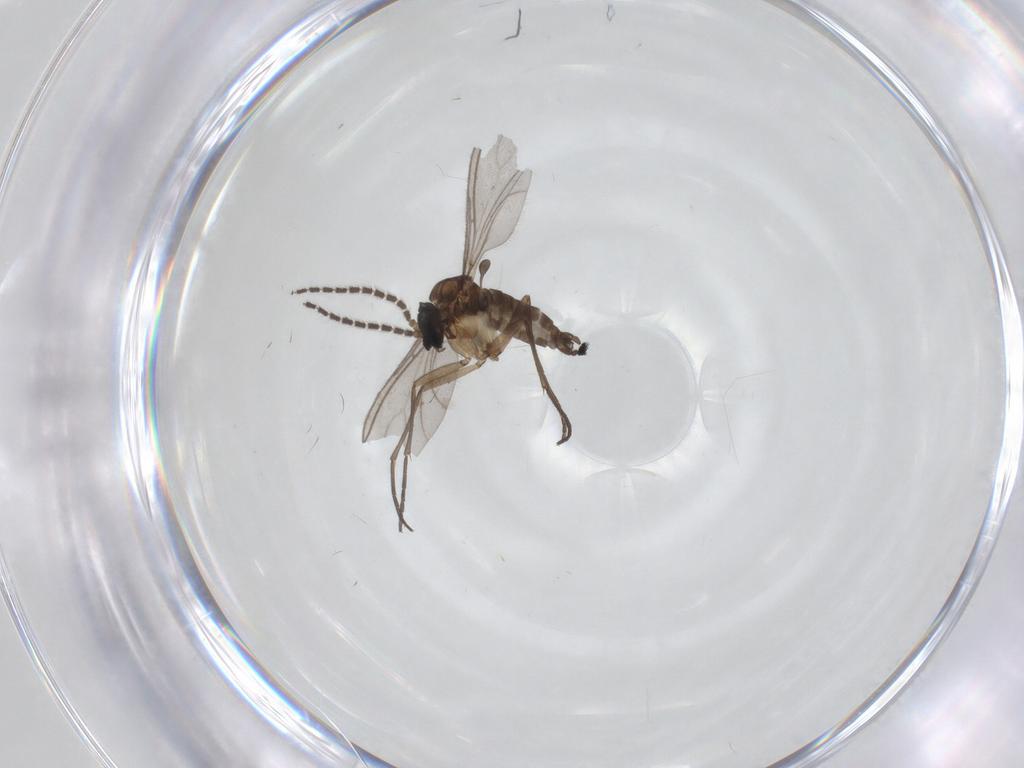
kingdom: Animalia
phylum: Arthropoda
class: Insecta
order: Diptera
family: Sciaridae
